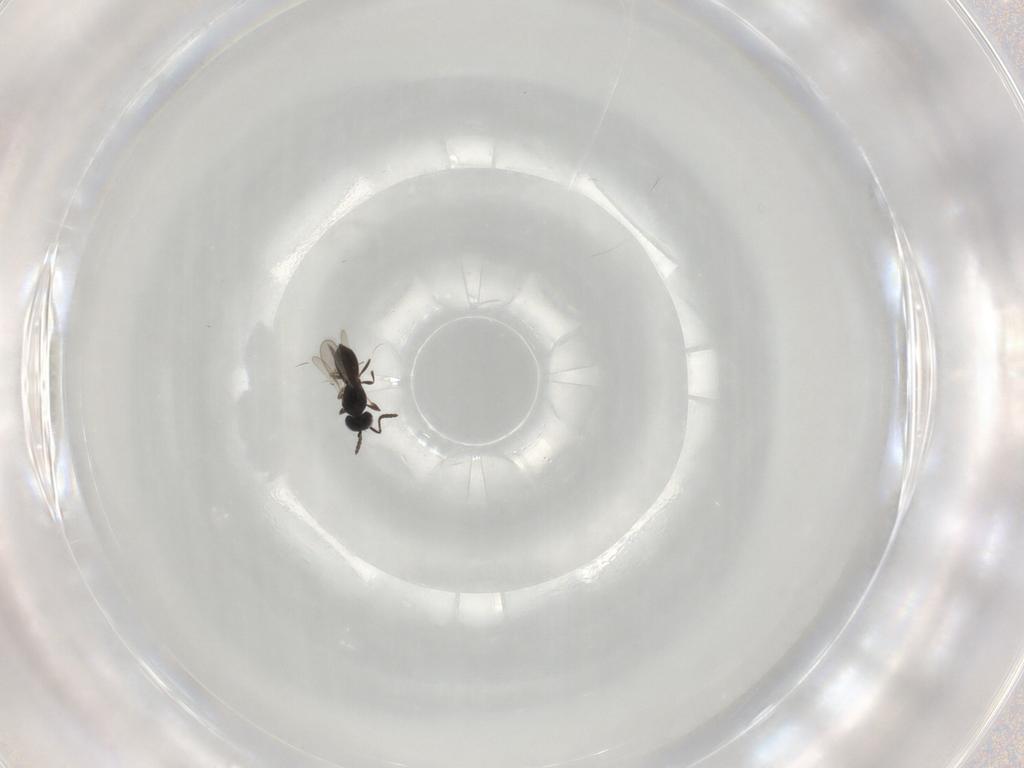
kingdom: Animalia
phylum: Arthropoda
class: Insecta
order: Hymenoptera
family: Scelionidae
